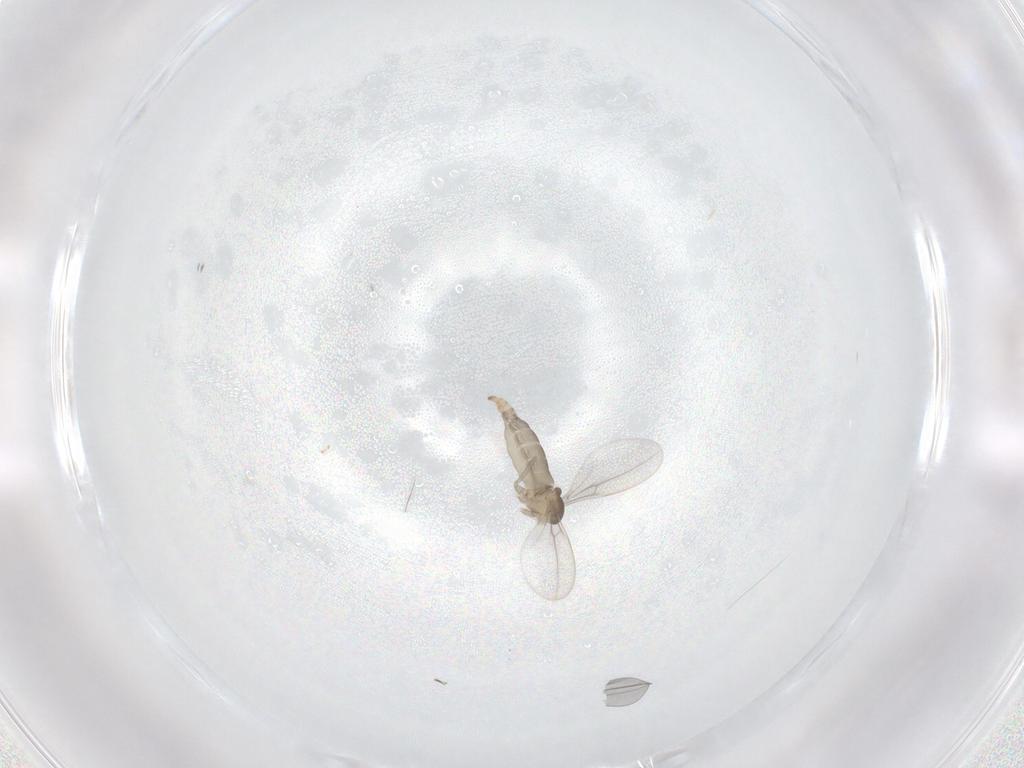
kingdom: Animalia
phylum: Arthropoda
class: Insecta
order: Diptera
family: Cecidomyiidae
